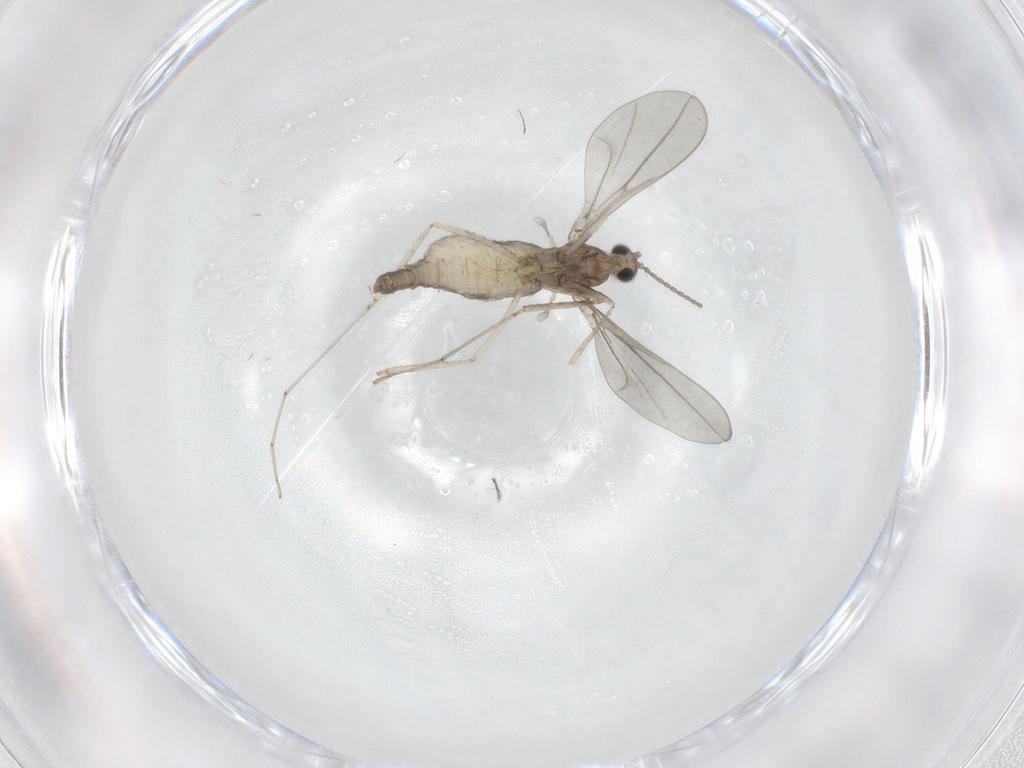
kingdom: Animalia
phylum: Arthropoda
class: Insecta
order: Diptera
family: Cecidomyiidae
